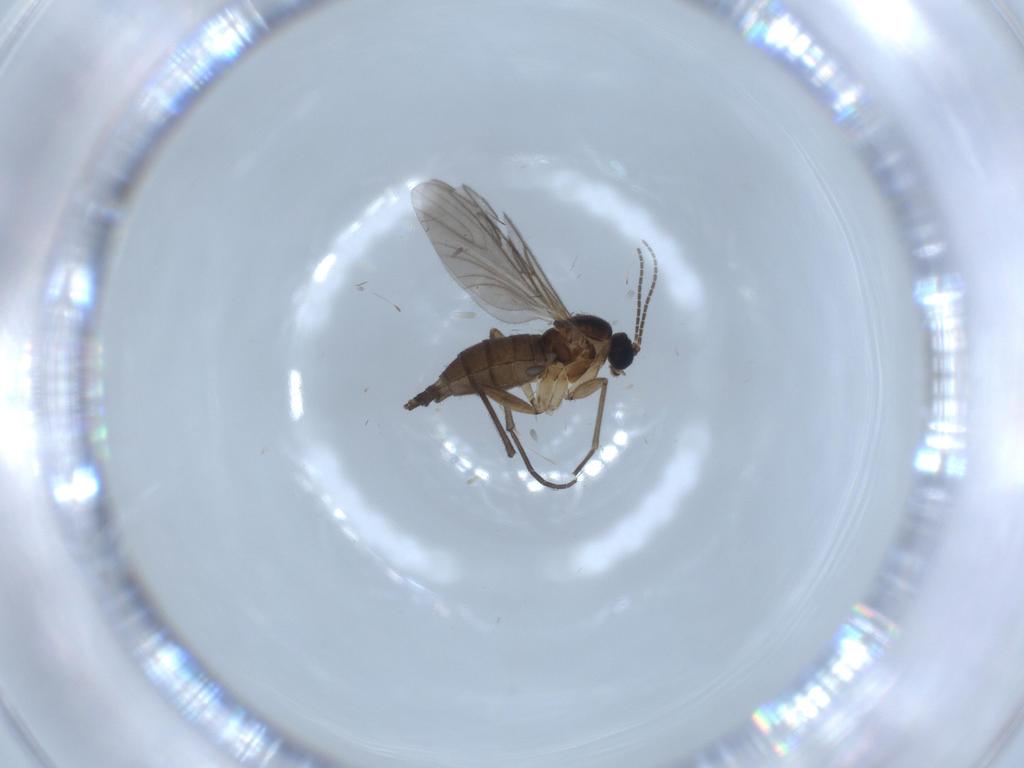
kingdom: Animalia
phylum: Arthropoda
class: Insecta
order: Diptera
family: Sciaridae
